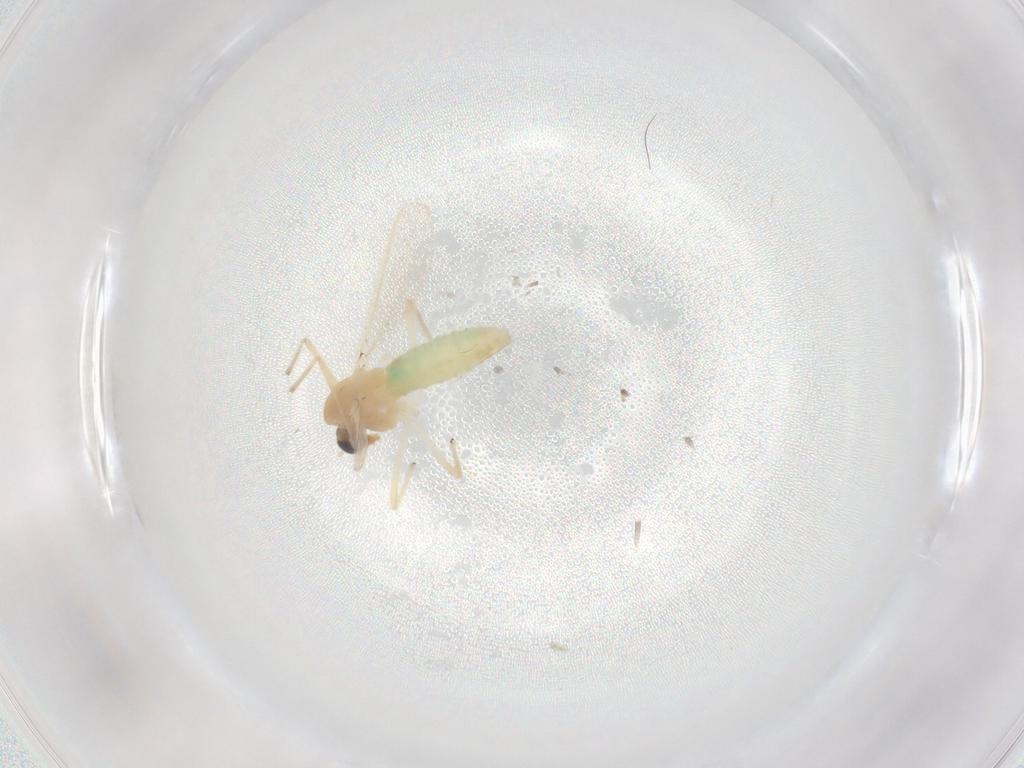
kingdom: Animalia
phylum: Arthropoda
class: Insecta
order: Diptera
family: Chironomidae
